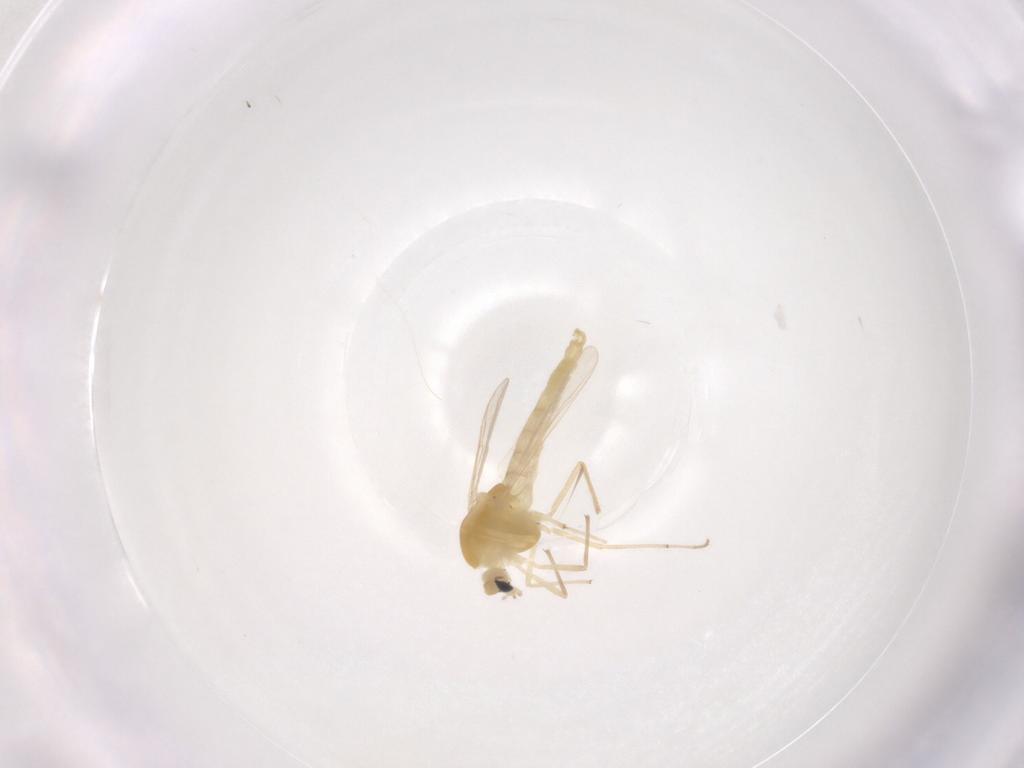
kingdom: Animalia
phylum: Arthropoda
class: Insecta
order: Diptera
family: Chironomidae
